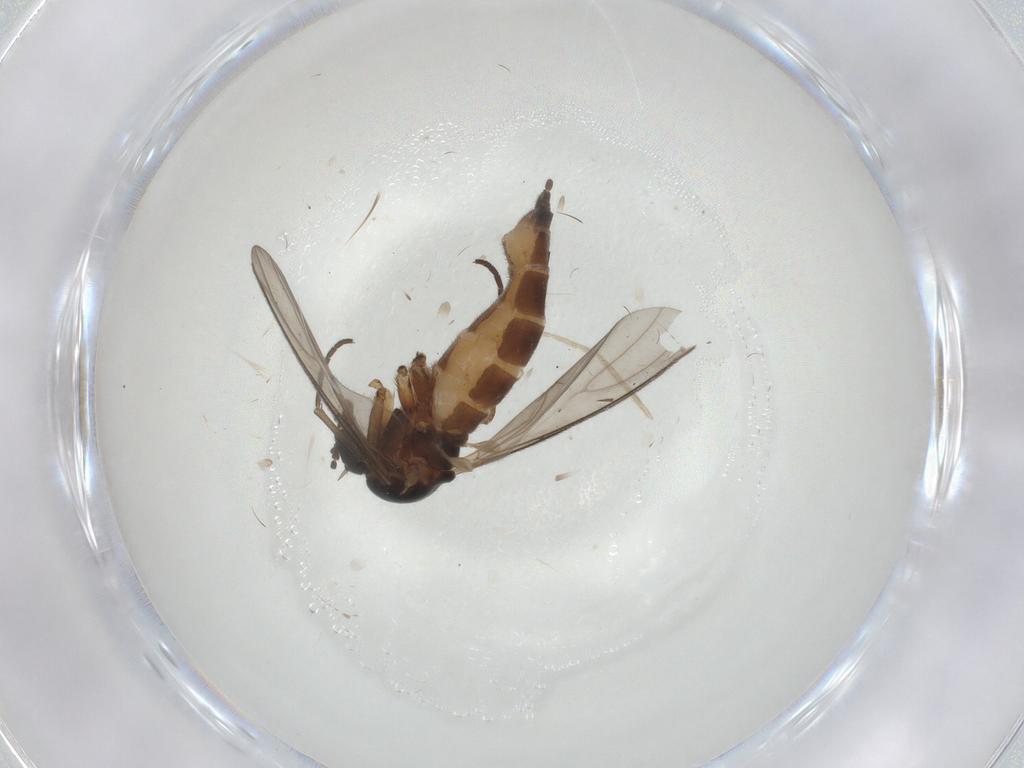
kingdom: Animalia
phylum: Arthropoda
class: Insecta
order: Diptera
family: Sciaridae
